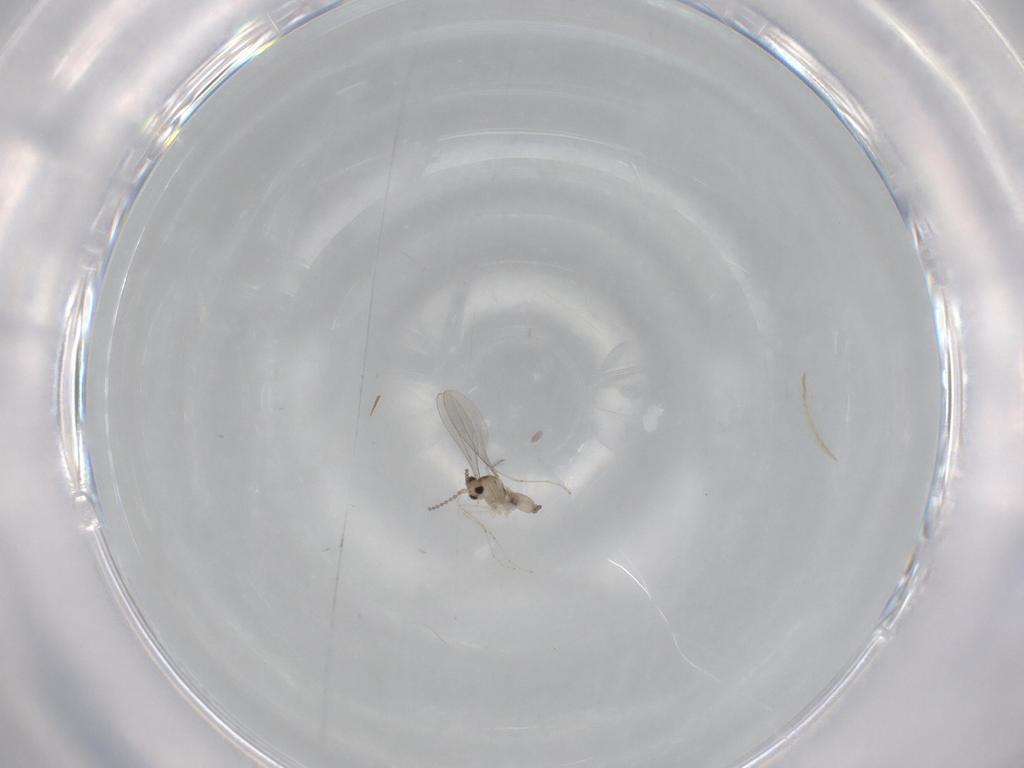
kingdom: Animalia
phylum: Arthropoda
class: Insecta
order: Diptera
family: Cecidomyiidae
